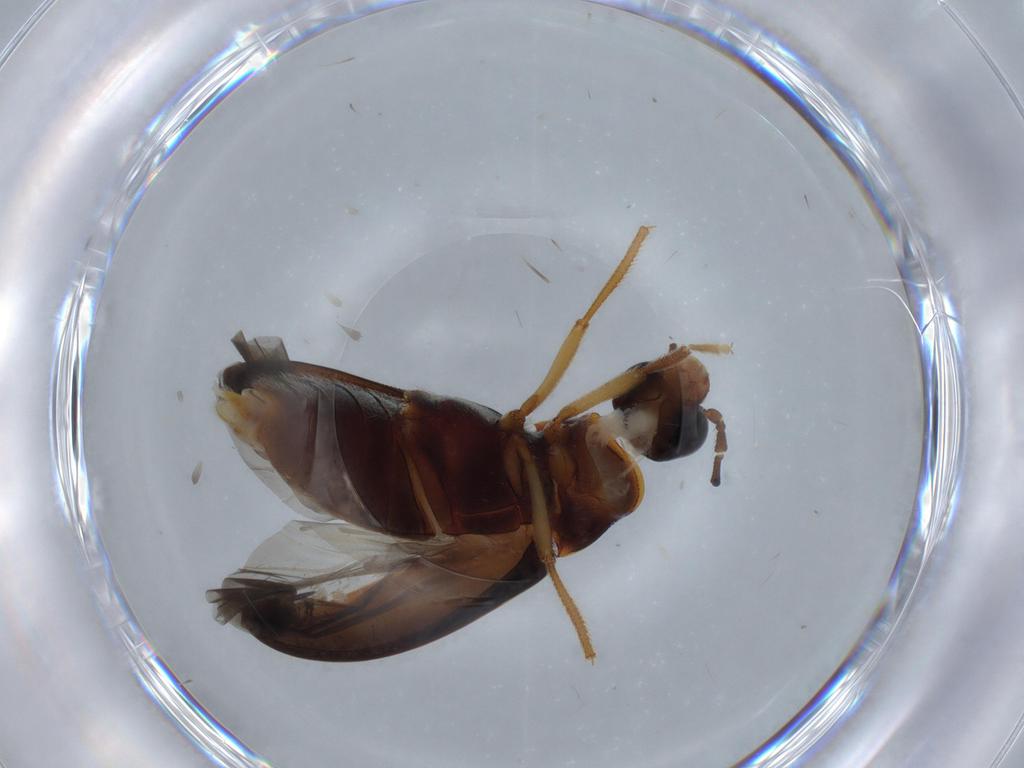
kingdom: Animalia
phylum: Arthropoda
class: Insecta
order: Coleoptera
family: Ptilodactylidae
